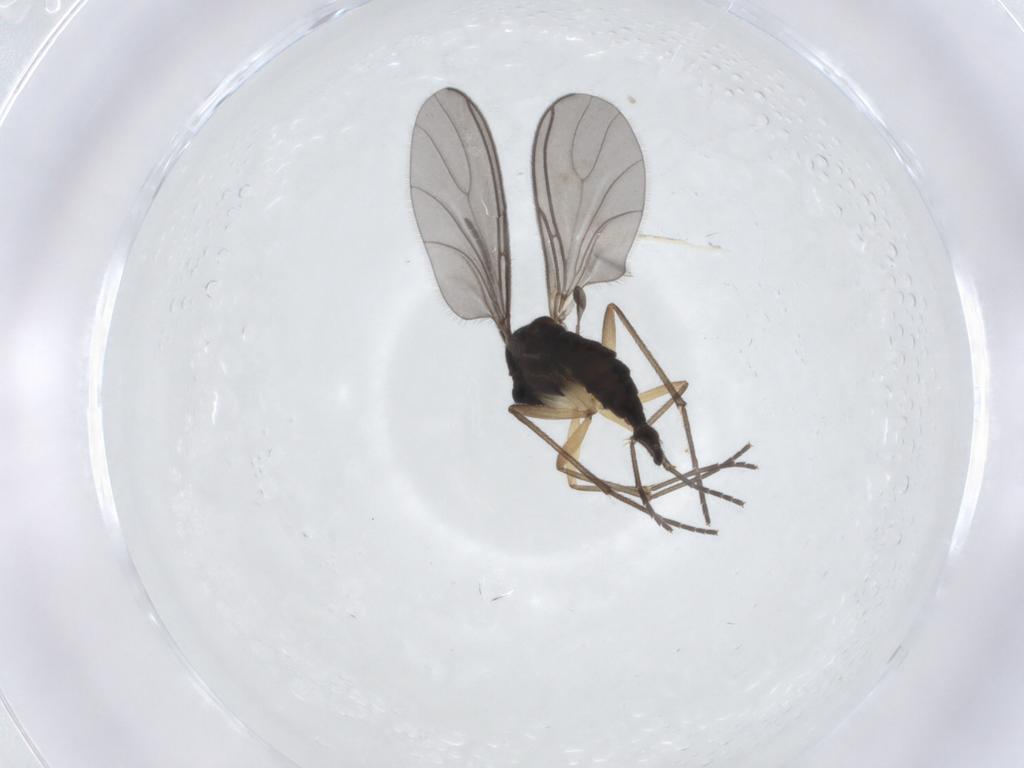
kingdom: Animalia
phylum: Arthropoda
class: Insecta
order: Diptera
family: Sciaridae
